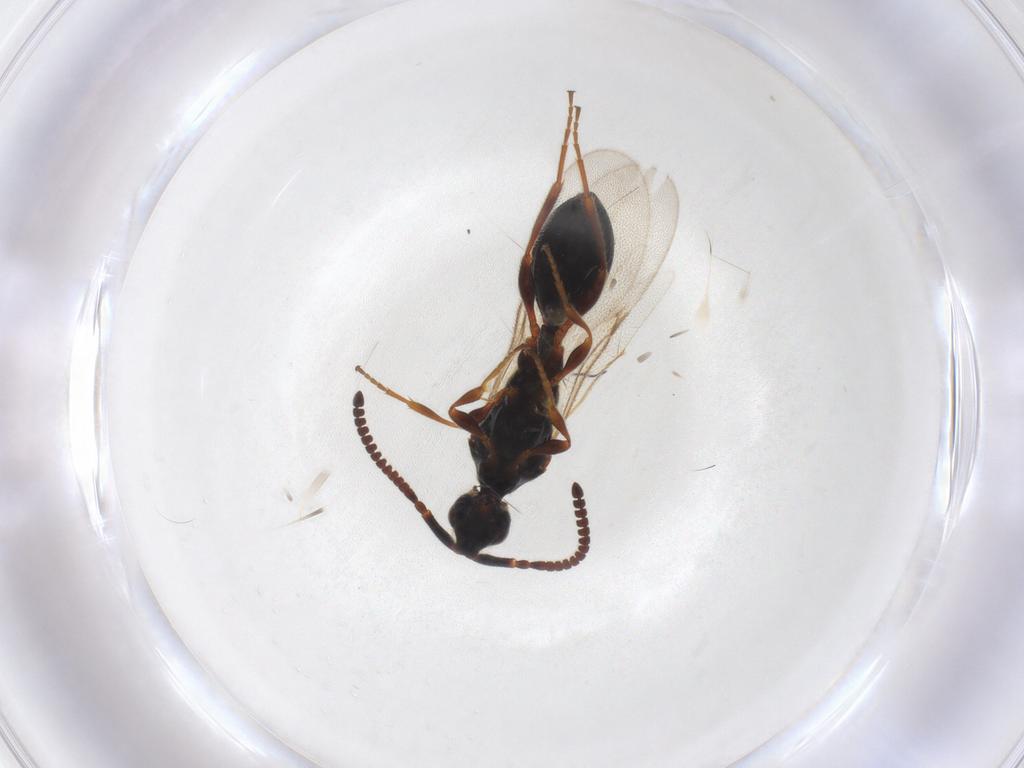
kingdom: Animalia
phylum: Arthropoda
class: Insecta
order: Hymenoptera
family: Diapriidae
